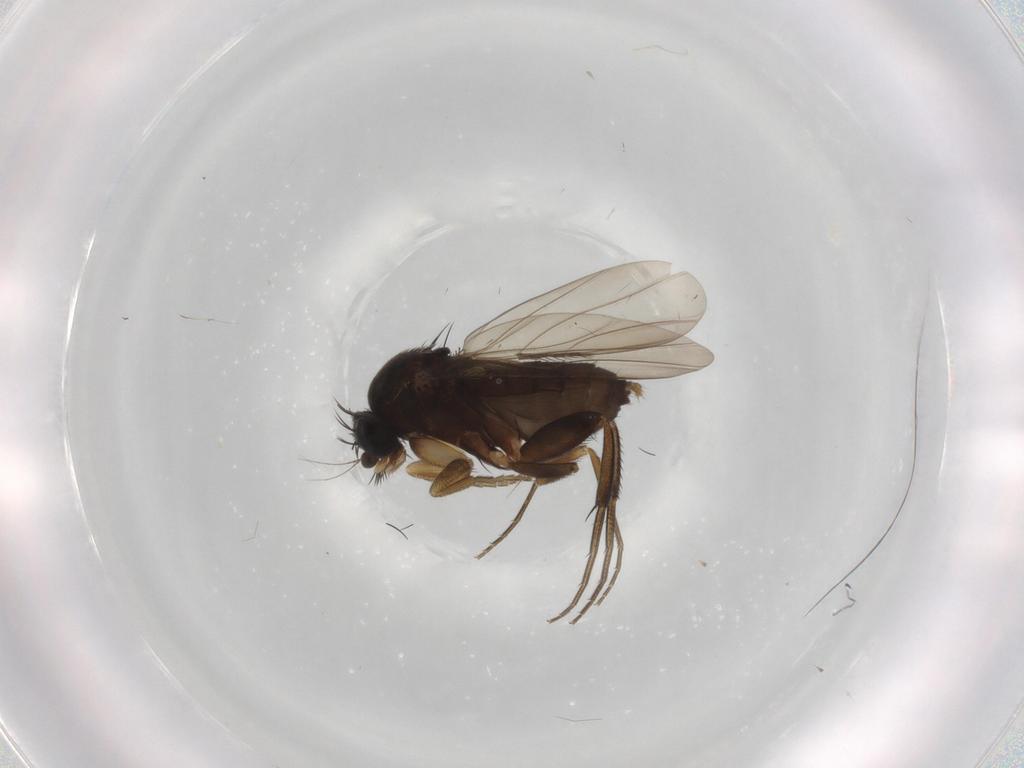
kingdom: Animalia
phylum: Arthropoda
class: Insecta
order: Diptera
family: Phoridae
